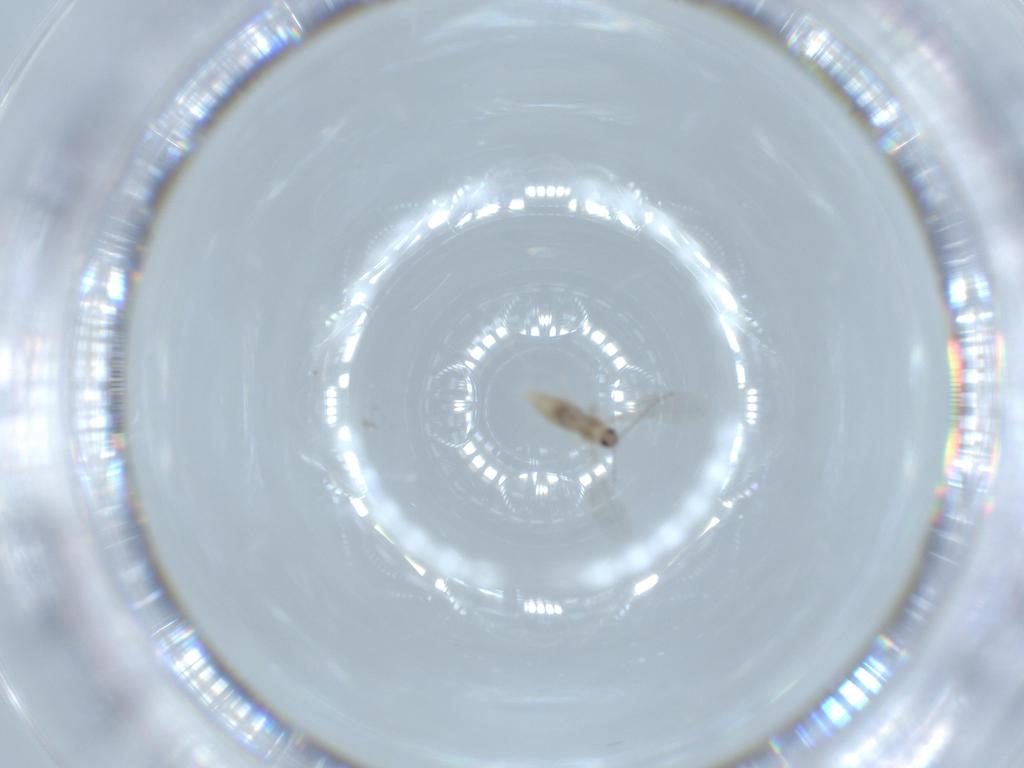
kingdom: Animalia
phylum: Arthropoda
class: Insecta
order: Diptera
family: Cecidomyiidae
